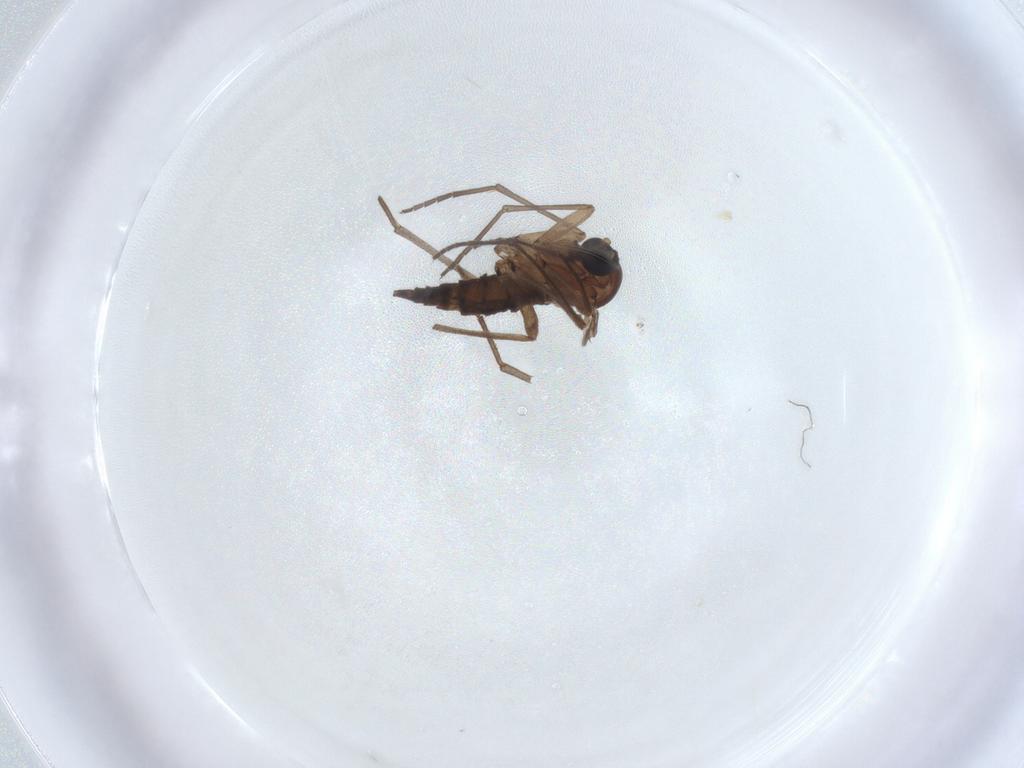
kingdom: Animalia
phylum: Arthropoda
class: Insecta
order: Diptera
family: Sciaridae
